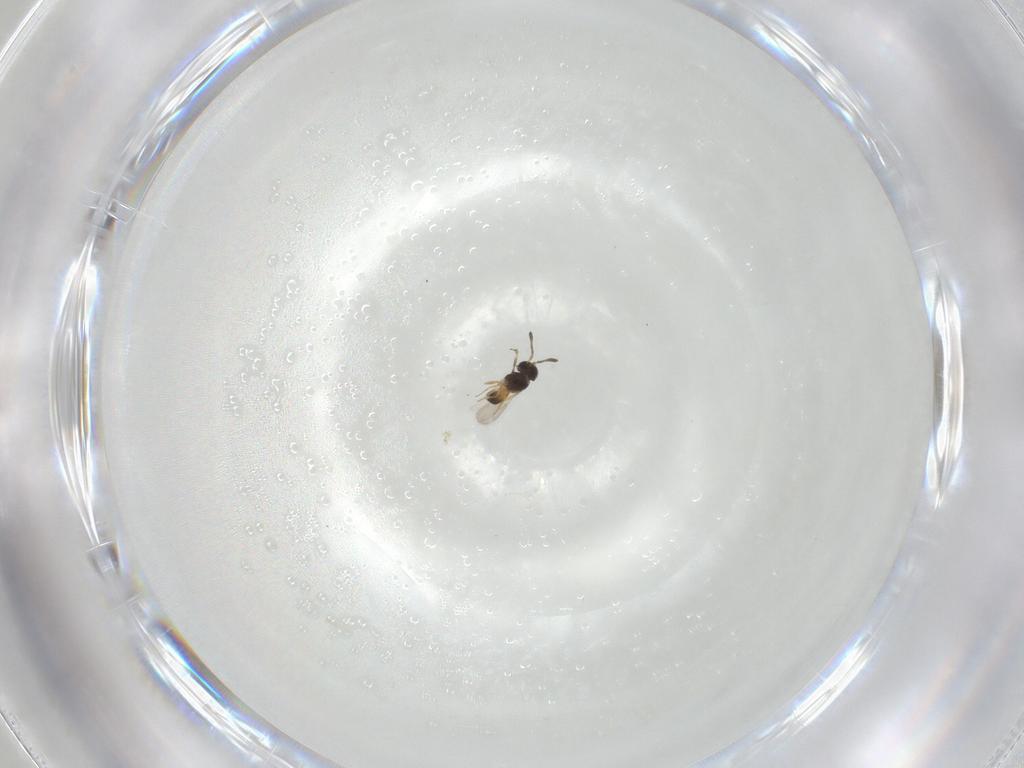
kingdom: Animalia
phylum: Arthropoda
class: Insecta
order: Hymenoptera
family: Scelionidae
